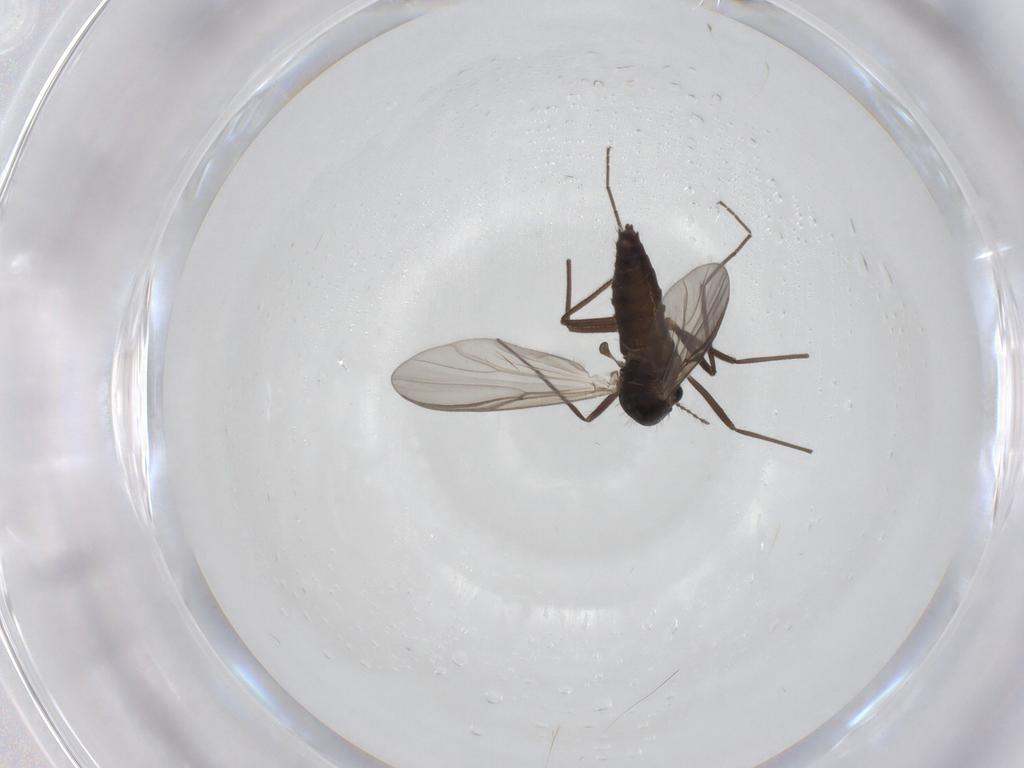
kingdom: Animalia
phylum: Arthropoda
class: Insecta
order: Diptera
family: Chironomidae
